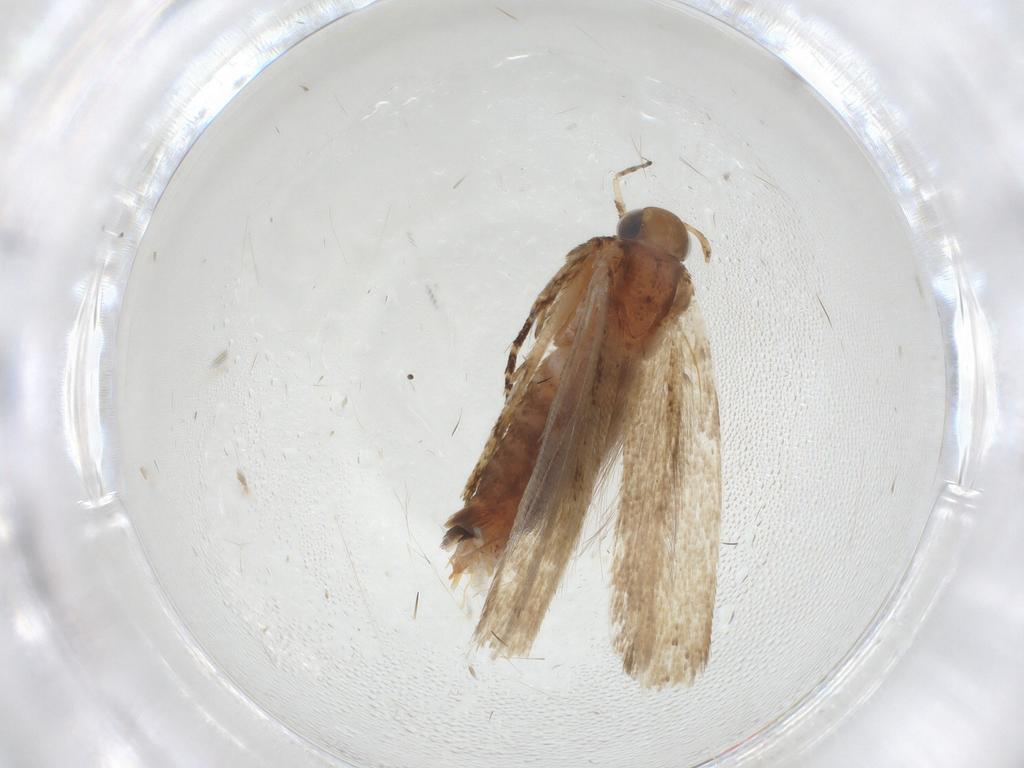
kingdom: Animalia
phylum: Arthropoda
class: Insecta
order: Lepidoptera
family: Gelechiidae
